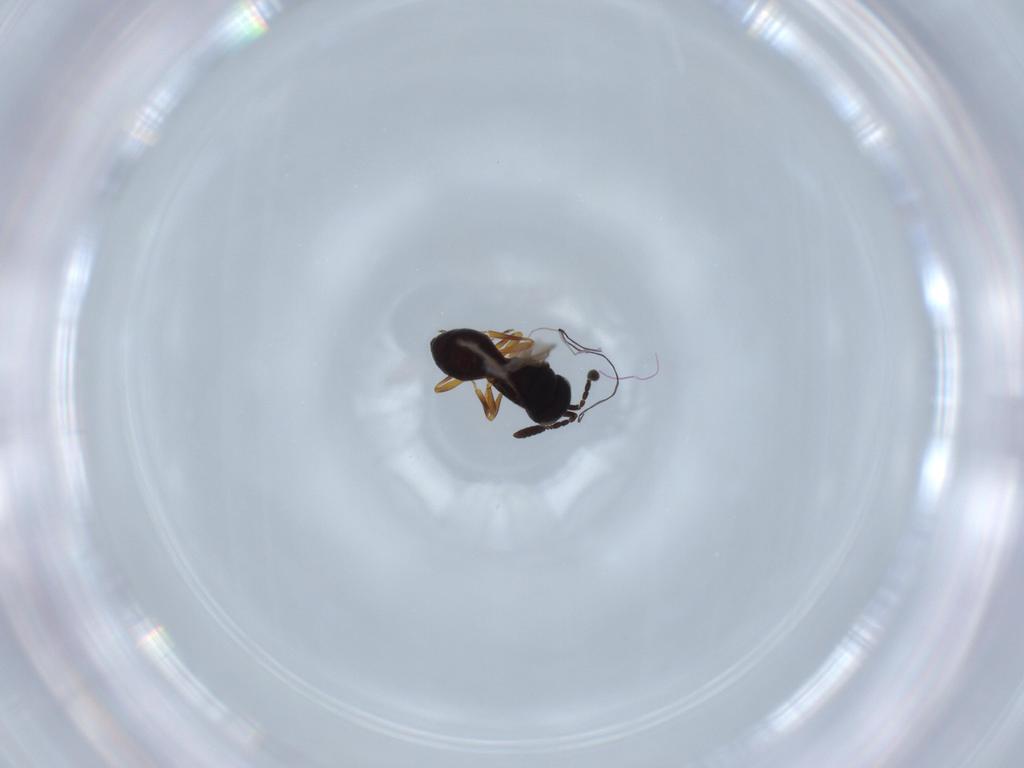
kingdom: Animalia
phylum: Arthropoda
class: Insecta
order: Hymenoptera
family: Scelionidae
